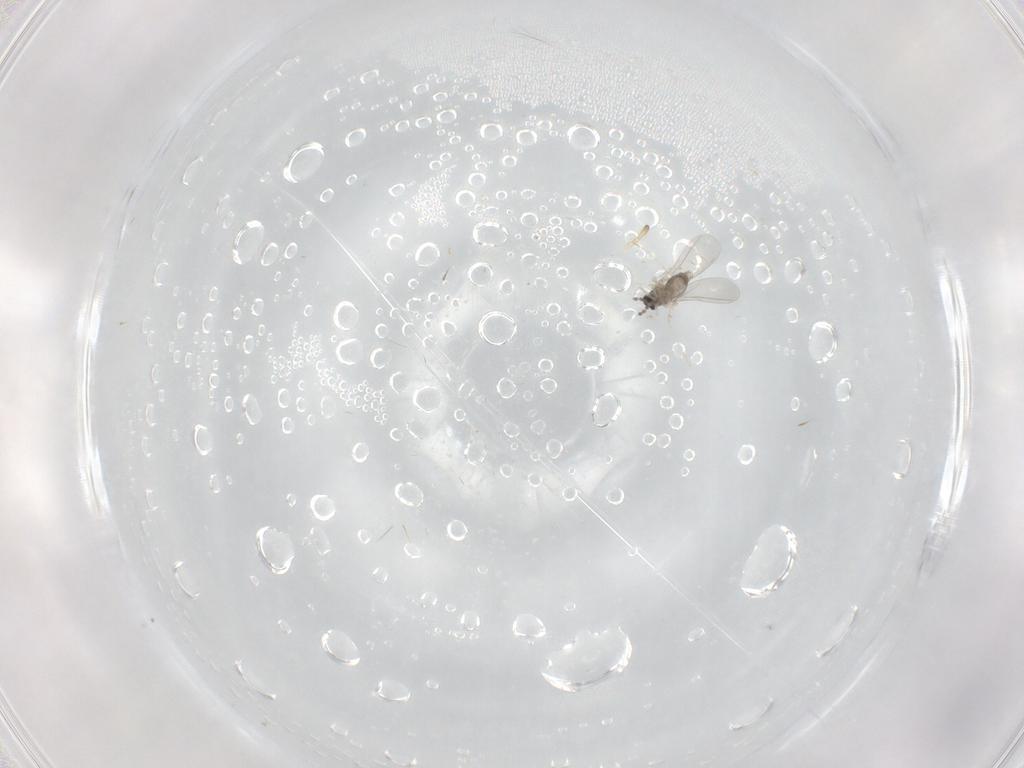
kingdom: Animalia
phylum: Arthropoda
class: Insecta
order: Diptera
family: Cecidomyiidae
